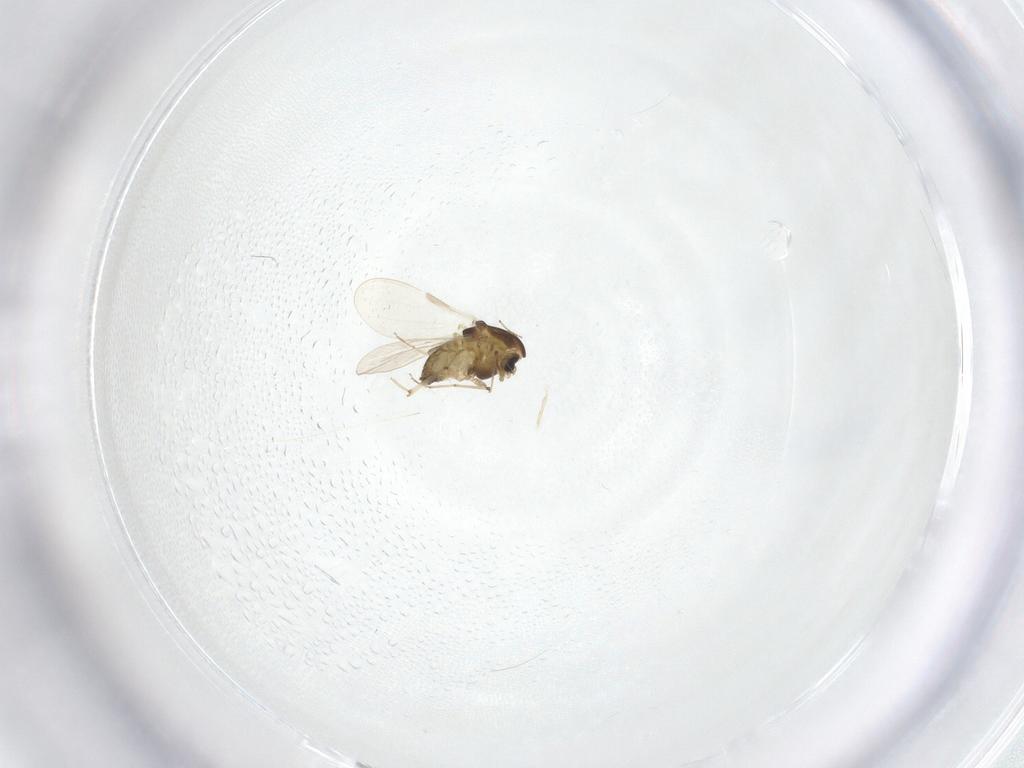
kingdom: Animalia
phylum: Arthropoda
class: Insecta
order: Diptera
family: Chironomidae
